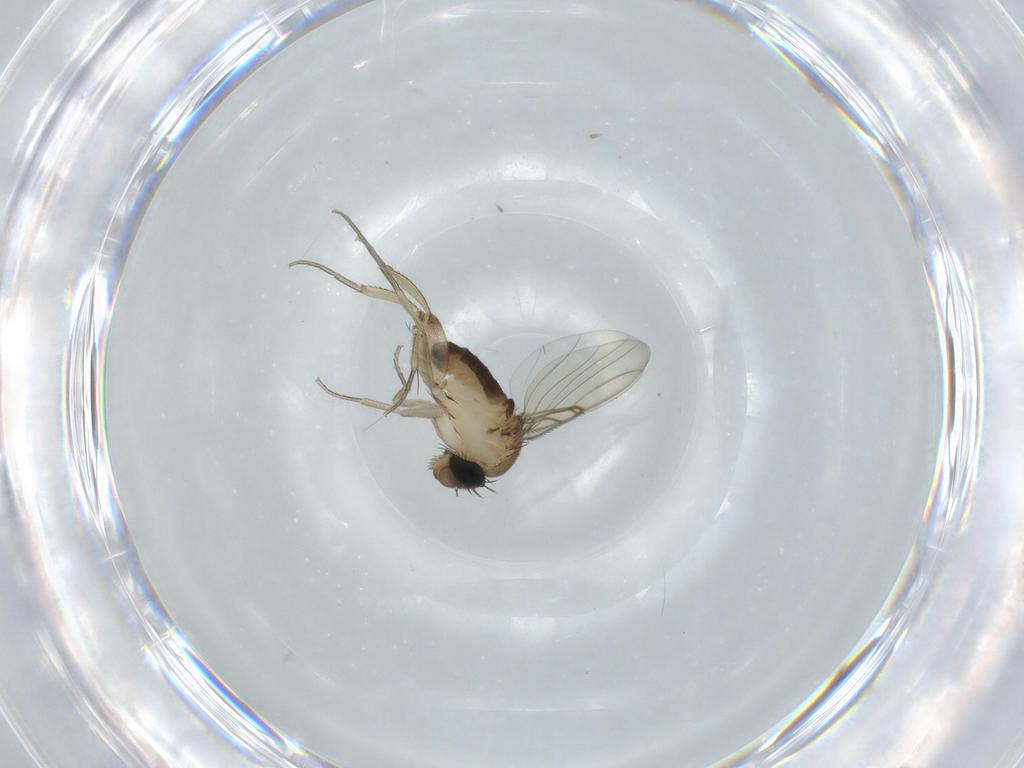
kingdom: Animalia
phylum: Arthropoda
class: Insecta
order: Diptera
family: Phoridae
